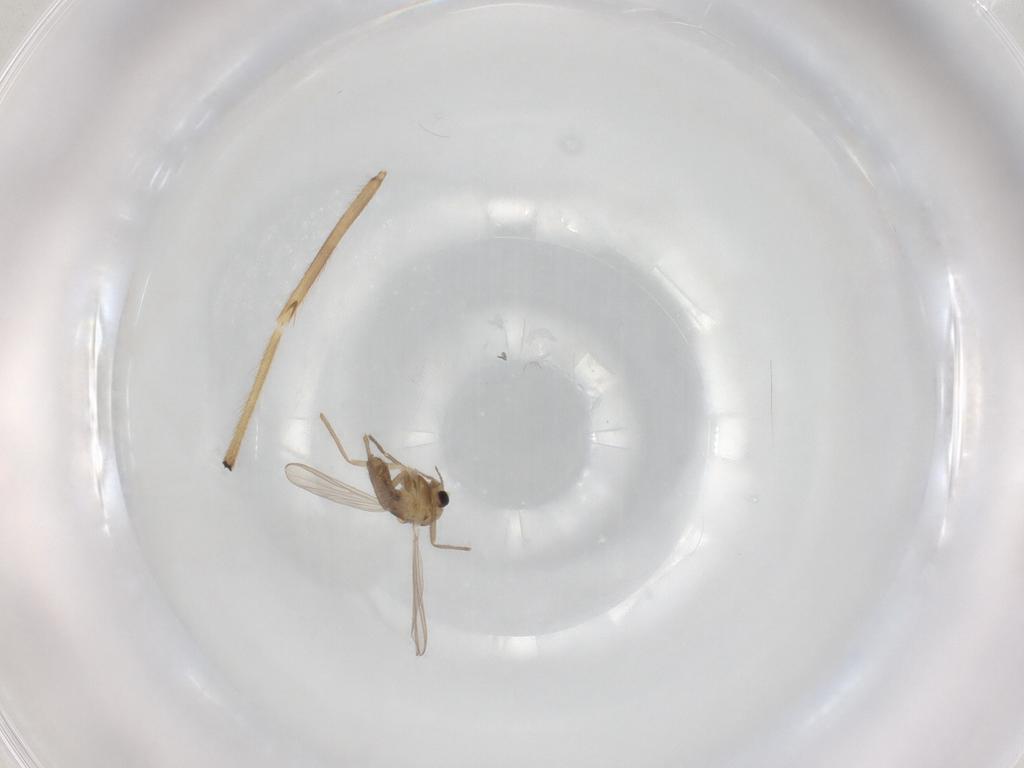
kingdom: Animalia
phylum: Arthropoda
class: Insecta
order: Diptera
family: Chironomidae
